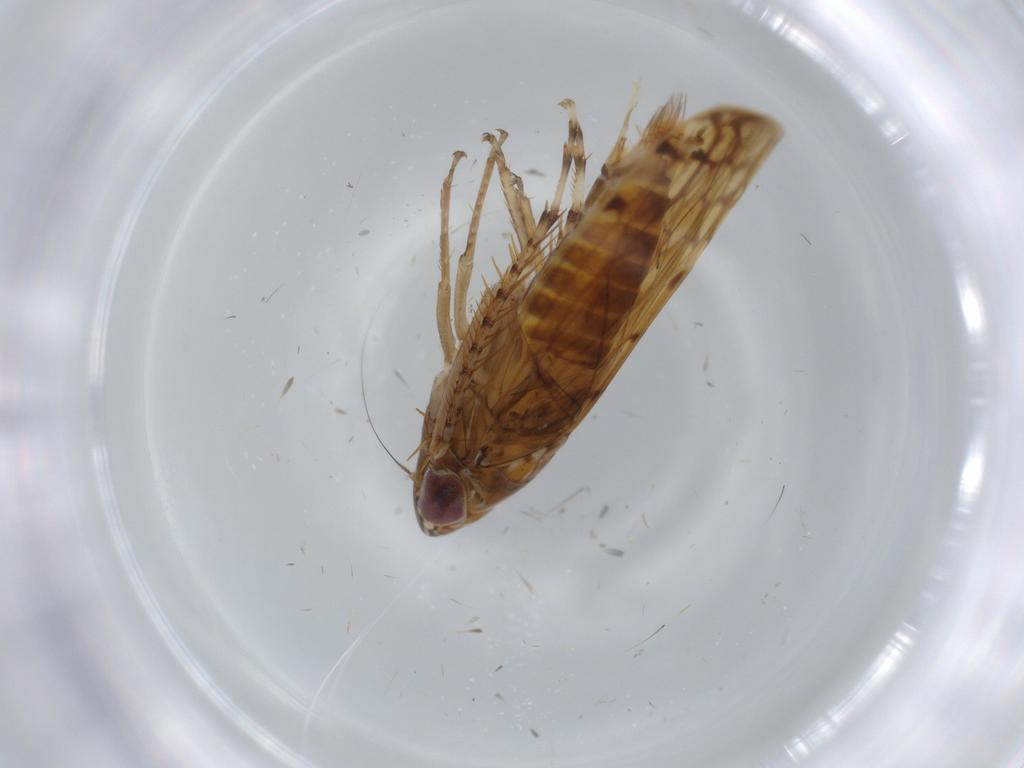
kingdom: Animalia
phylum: Arthropoda
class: Insecta
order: Hemiptera
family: Cicadellidae
